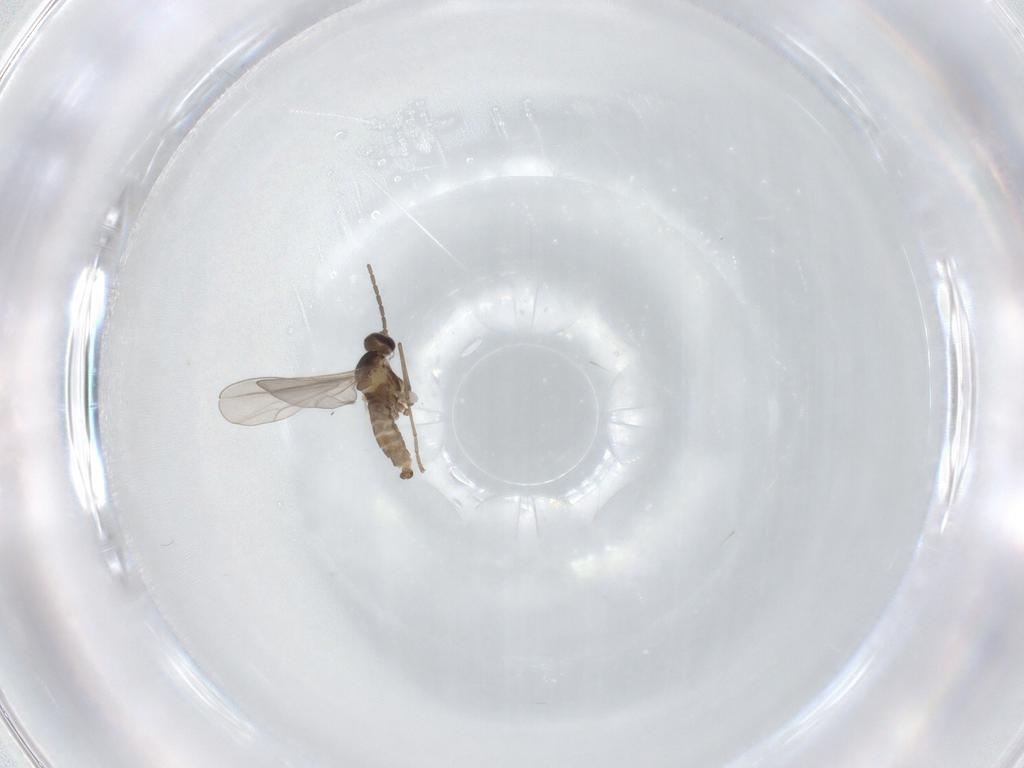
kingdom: Animalia
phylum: Arthropoda
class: Insecta
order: Diptera
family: Cecidomyiidae
